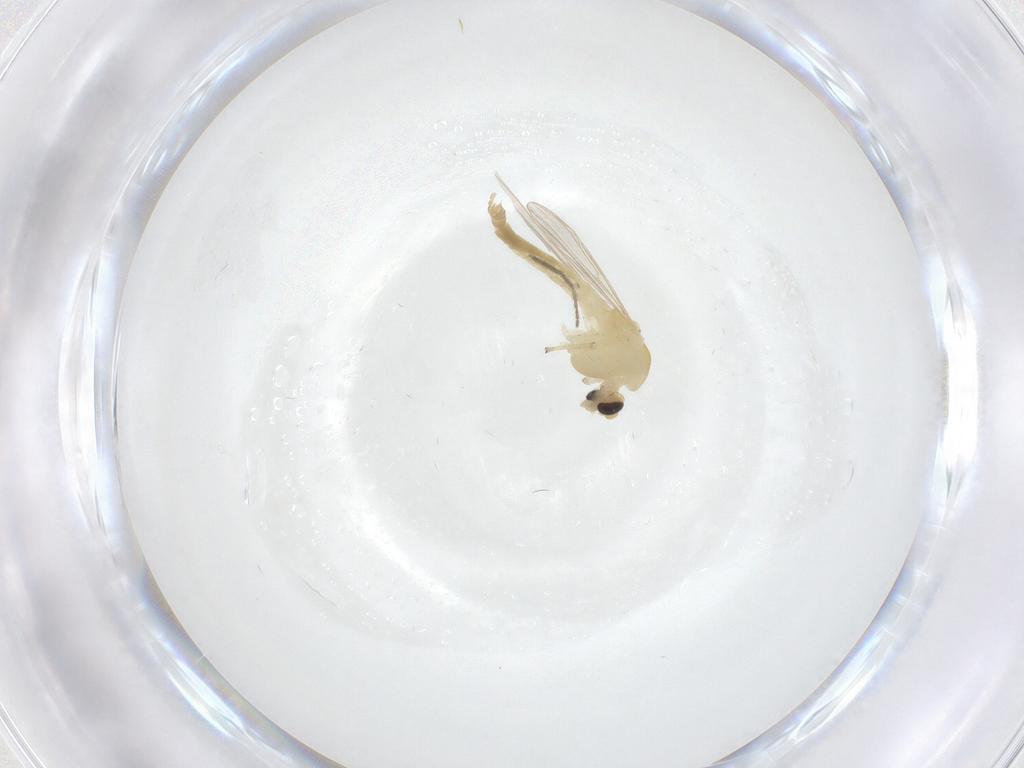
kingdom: Animalia
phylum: Arthropoda
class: Insecta
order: Diptera
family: Chironomidae
